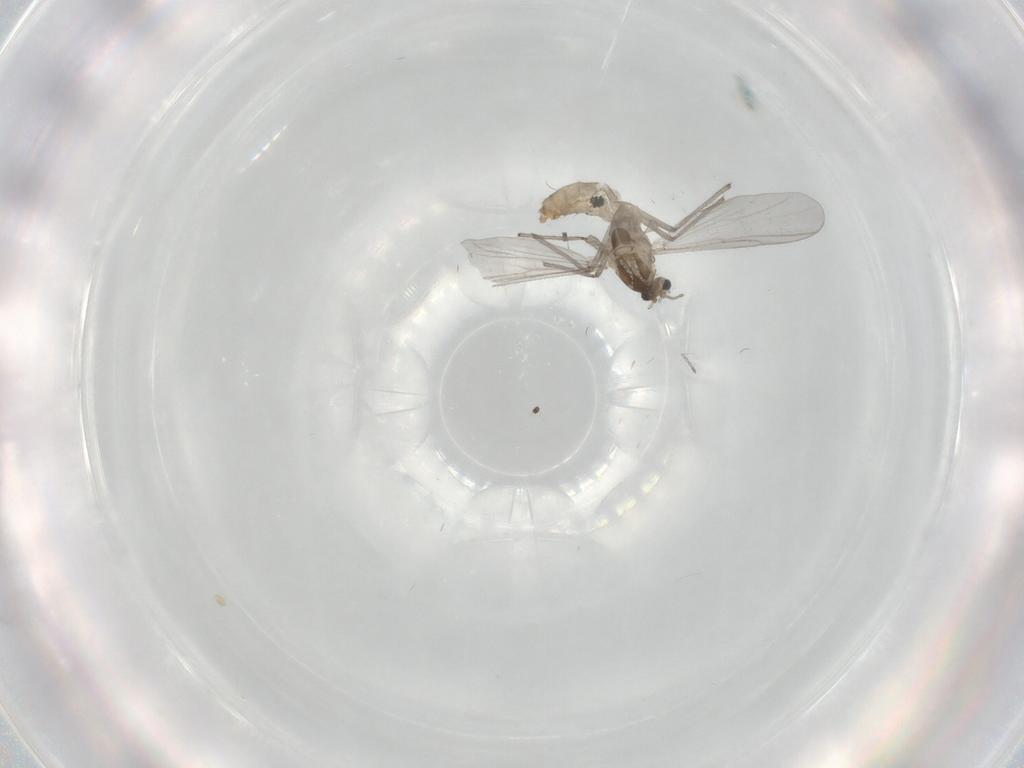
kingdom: Animalia
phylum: Arthropoda
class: Insecta
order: Diptera
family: Chironomidae
